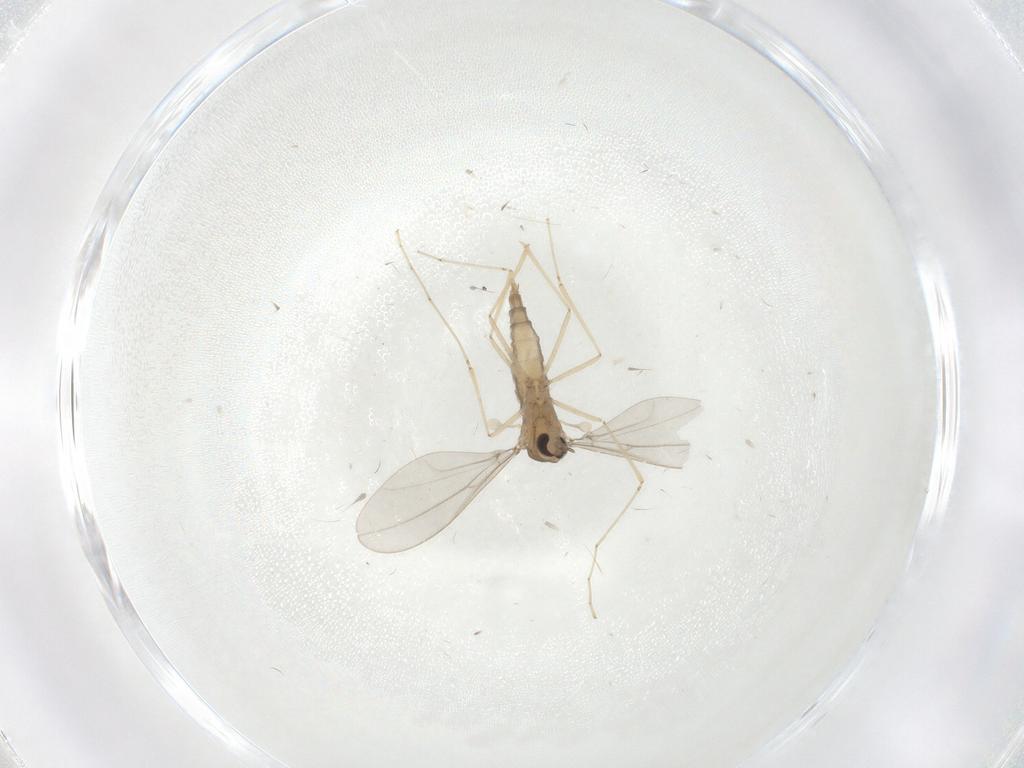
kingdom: Animalia
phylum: Arthropoda
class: Insecta
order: Diptera
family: Cecidomyiidae
